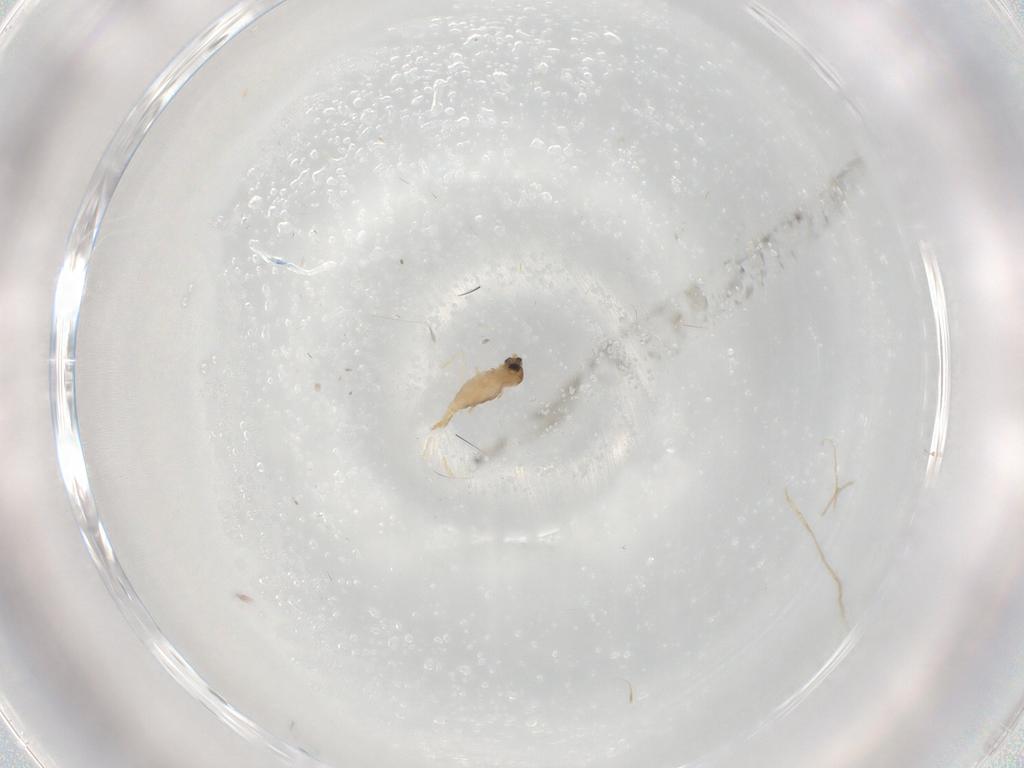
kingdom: Animalia
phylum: Arthropoda
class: Insecta
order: Diptera
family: Cecidomyiidae
